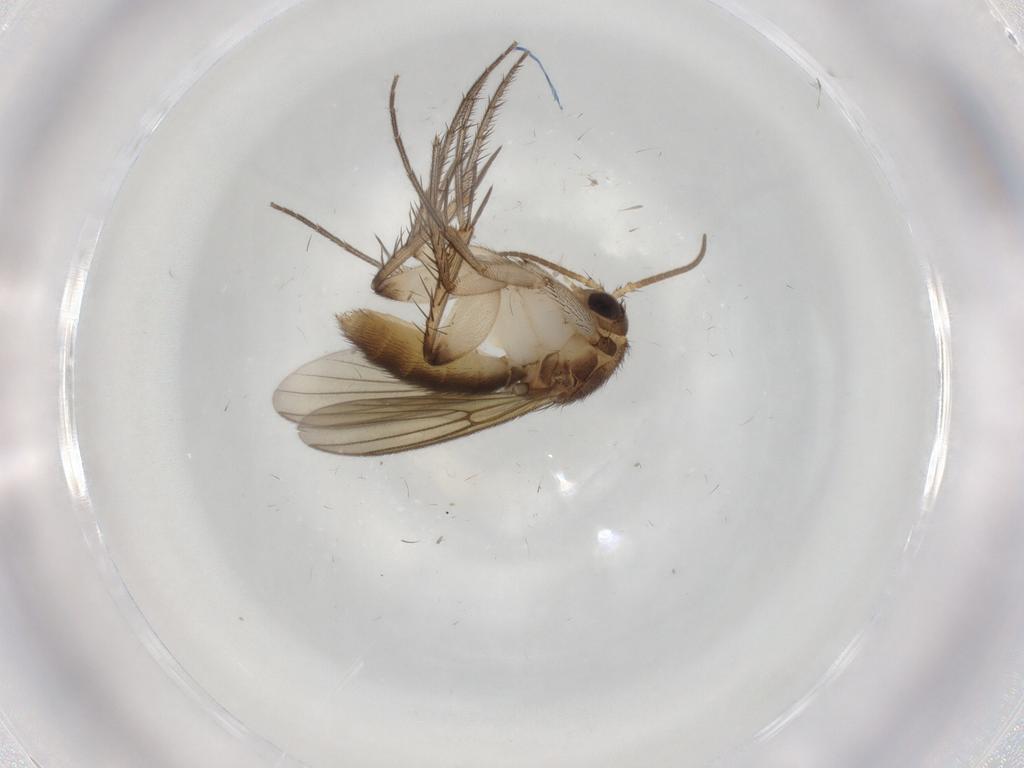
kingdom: Animalia
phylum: Arthropoda
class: Insecta
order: Diptera
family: Mycetophilidae
